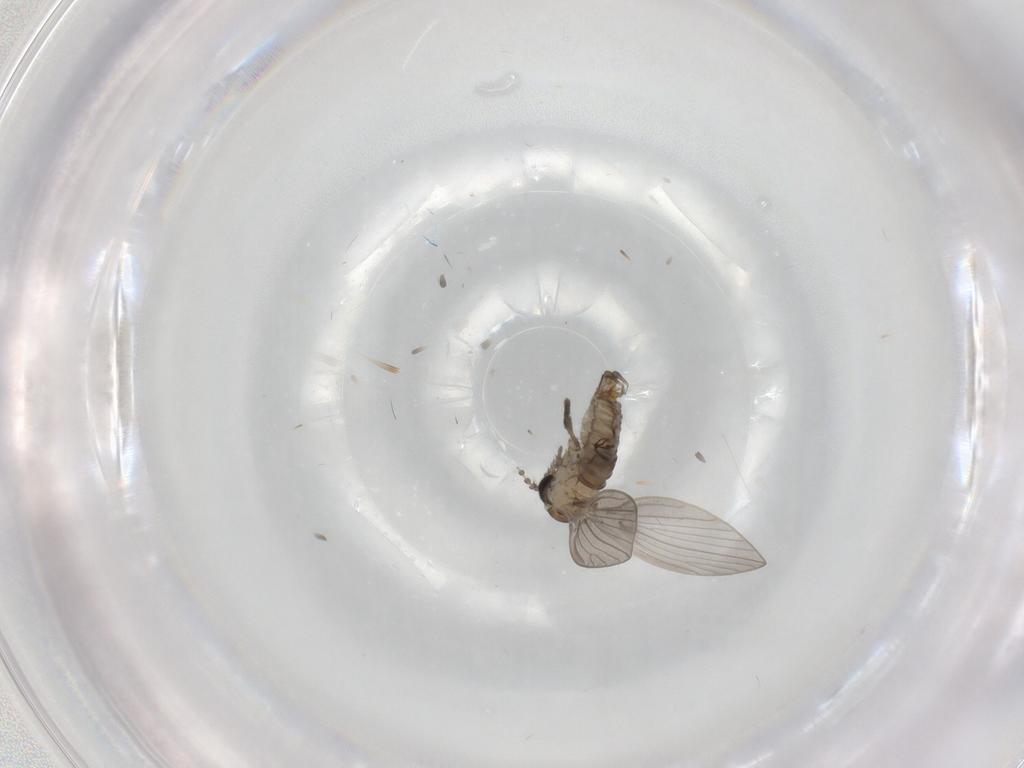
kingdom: Animalia
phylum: Arthropoda
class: Insecta
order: Diptera
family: Psychodidae
